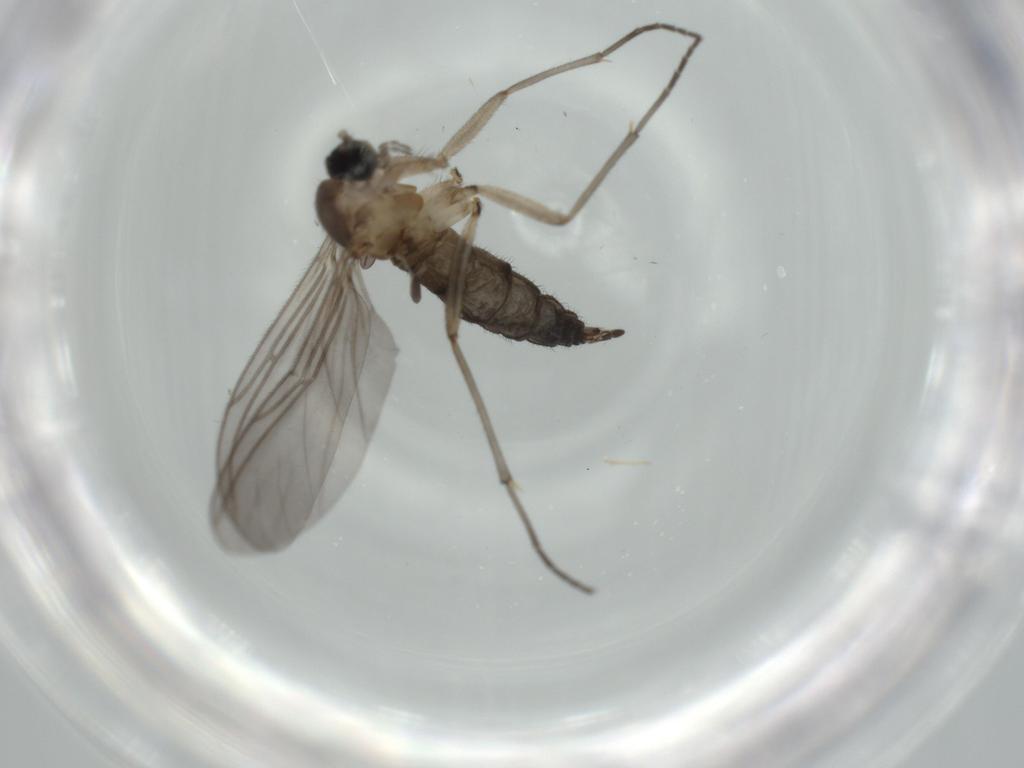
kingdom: Animalia
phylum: Arthropoda
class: Insecta
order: Diptera
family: Sciaridae
